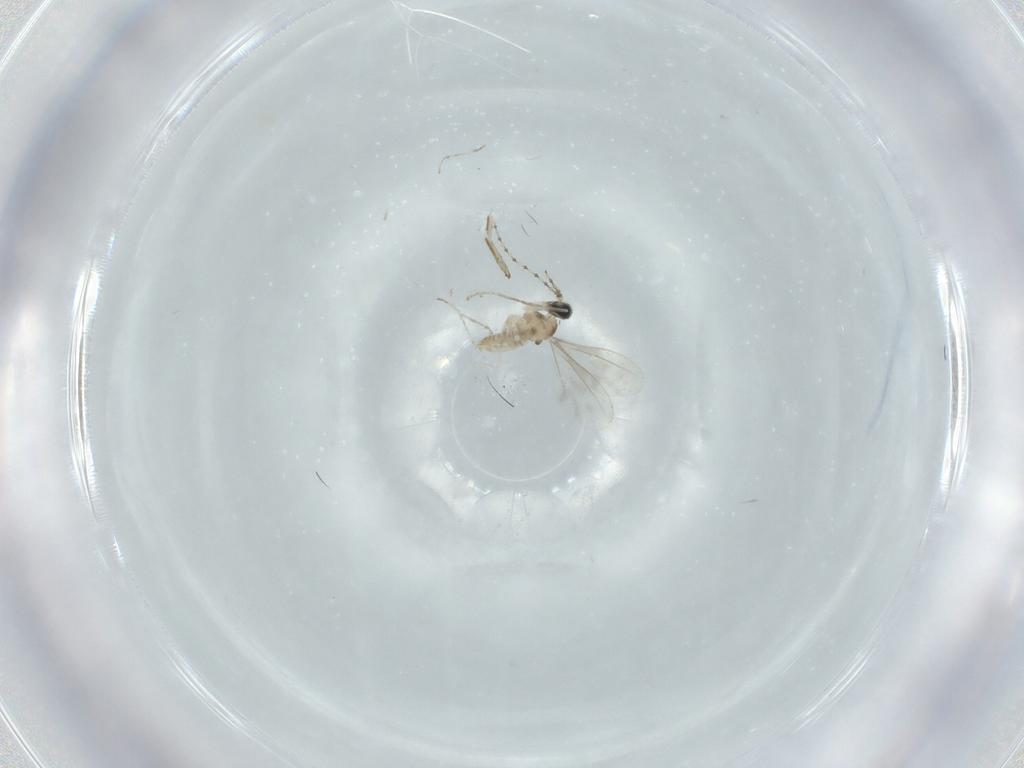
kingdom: Animalia
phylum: Arthropoda
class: Insecta
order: Diptera
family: Cecidomyiidae
